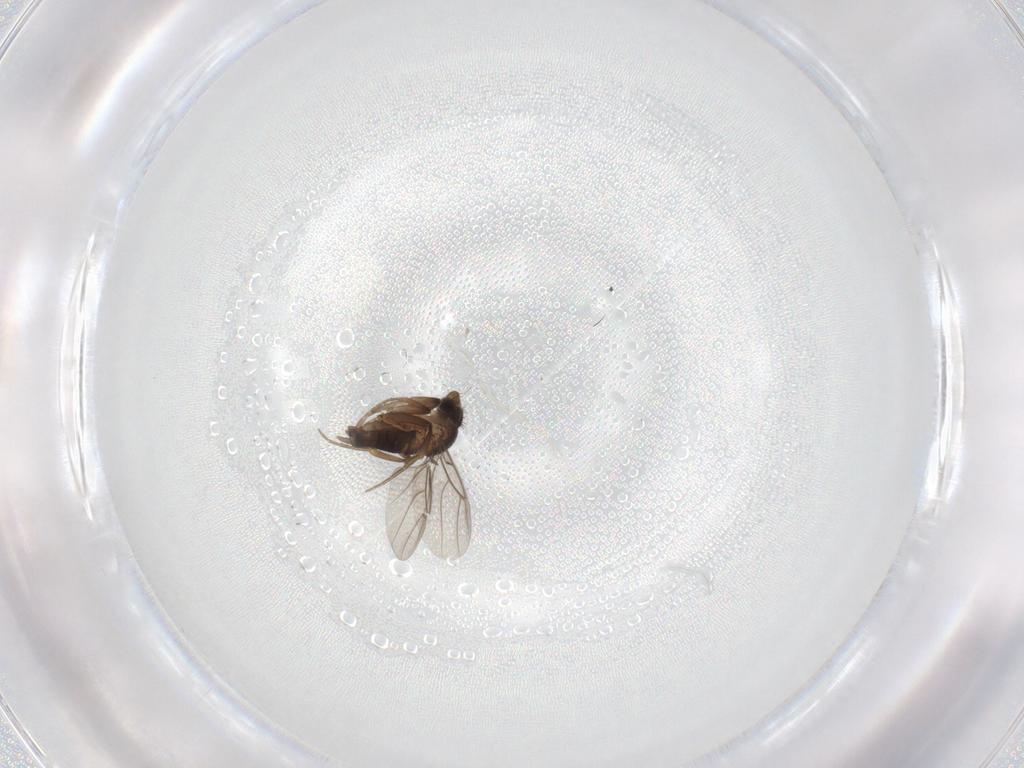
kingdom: Animalia
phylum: Arthropoda
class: Insecta
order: Diptera
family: Phoridae
